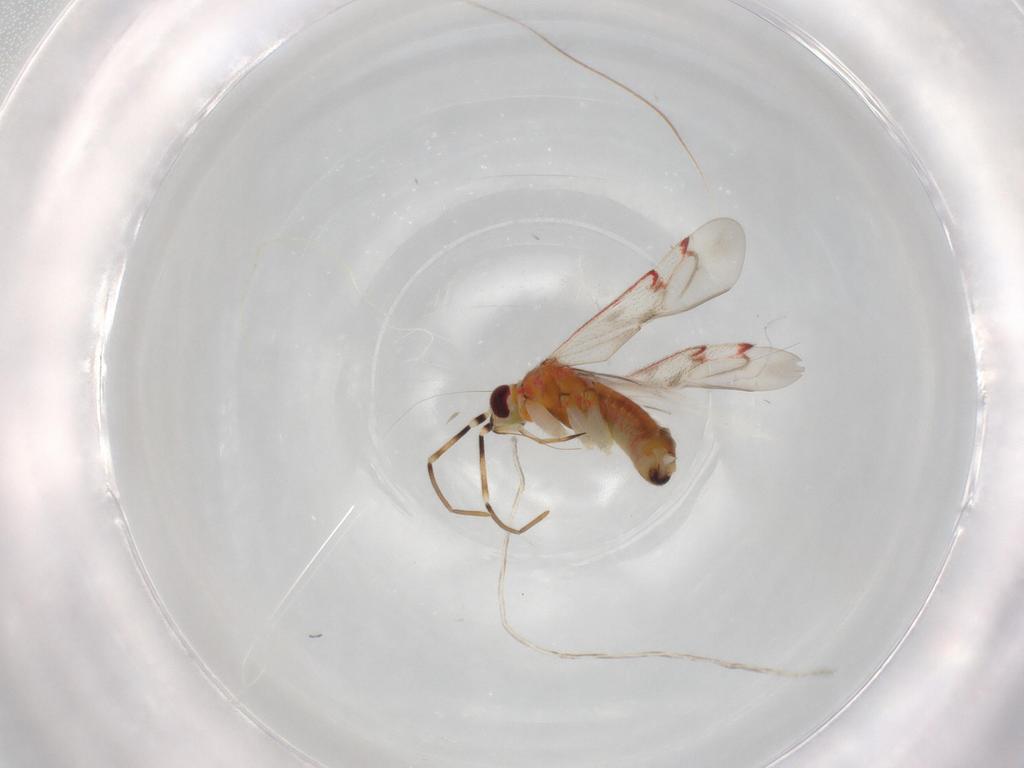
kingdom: Animalia
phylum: Arthropoda
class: Insecta
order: Hemiptera
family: Miridae
